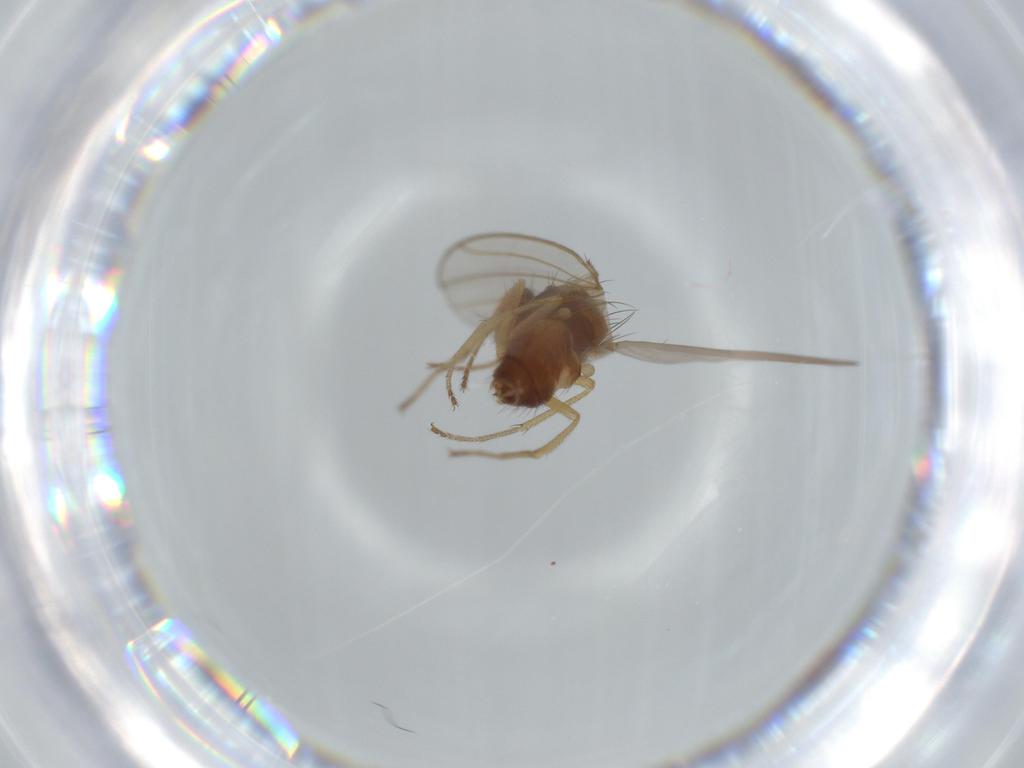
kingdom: Animalia
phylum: Arthropoda
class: Insecta
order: Diptera
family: Drosophilidae
